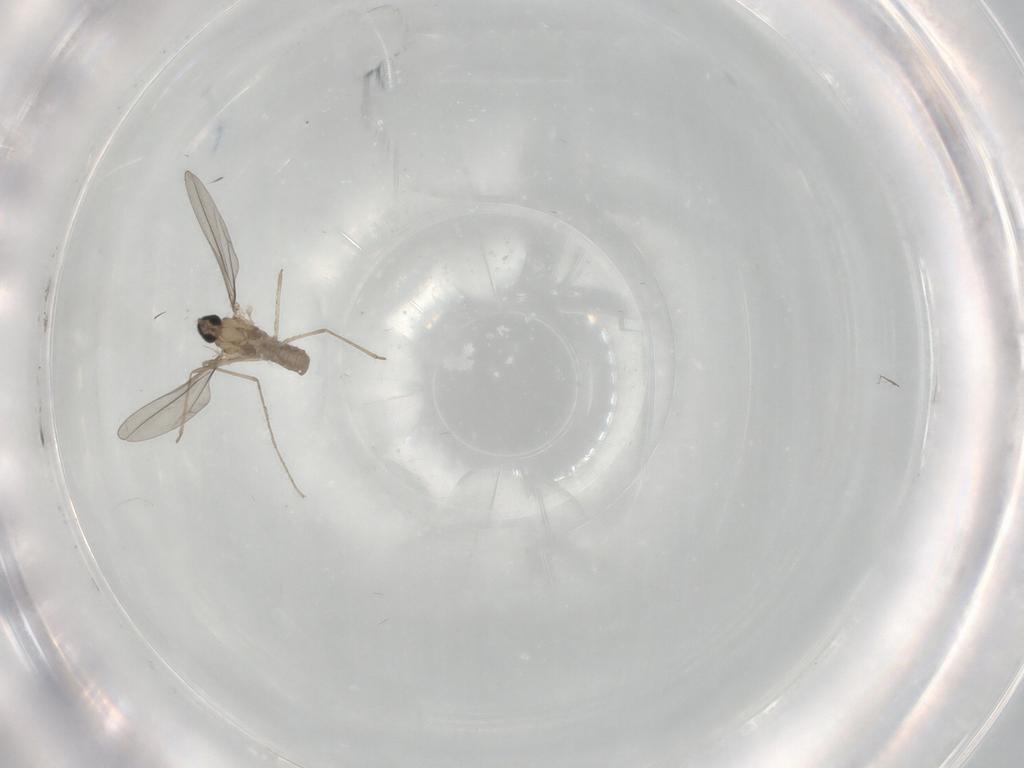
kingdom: Animalia
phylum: Arthropoda
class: Insecta
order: Diptera
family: Cecidomyiidae
